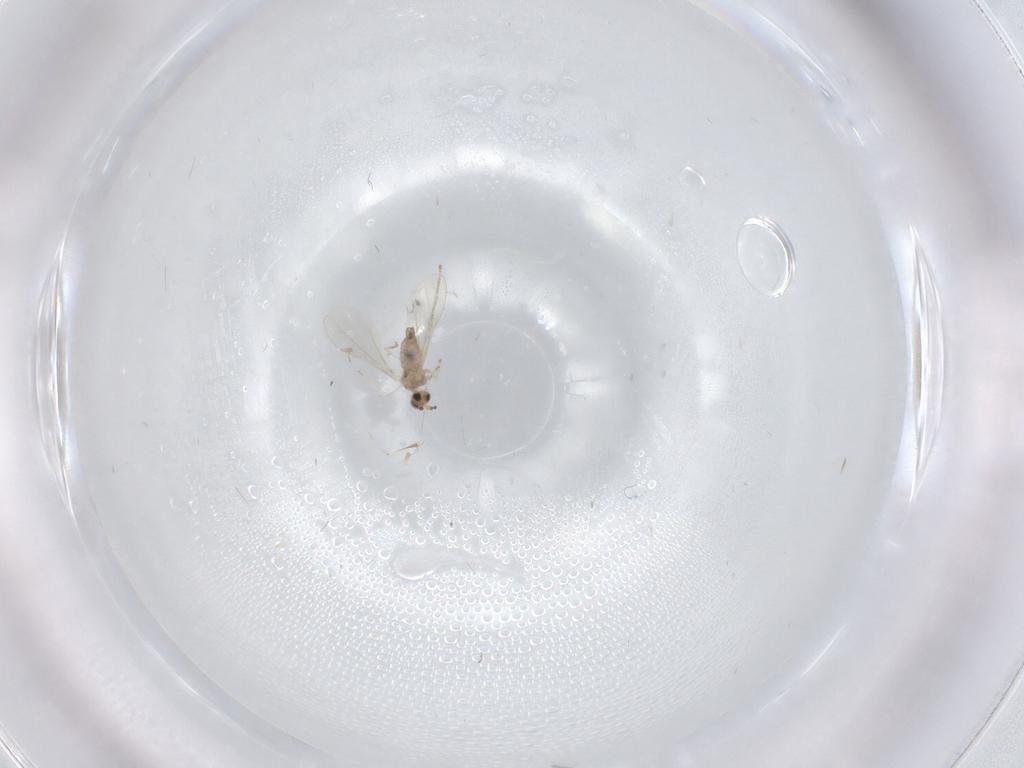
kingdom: Animalia
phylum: Arthropoda
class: Insecta
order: Diptera
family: Cecidomyiidae
